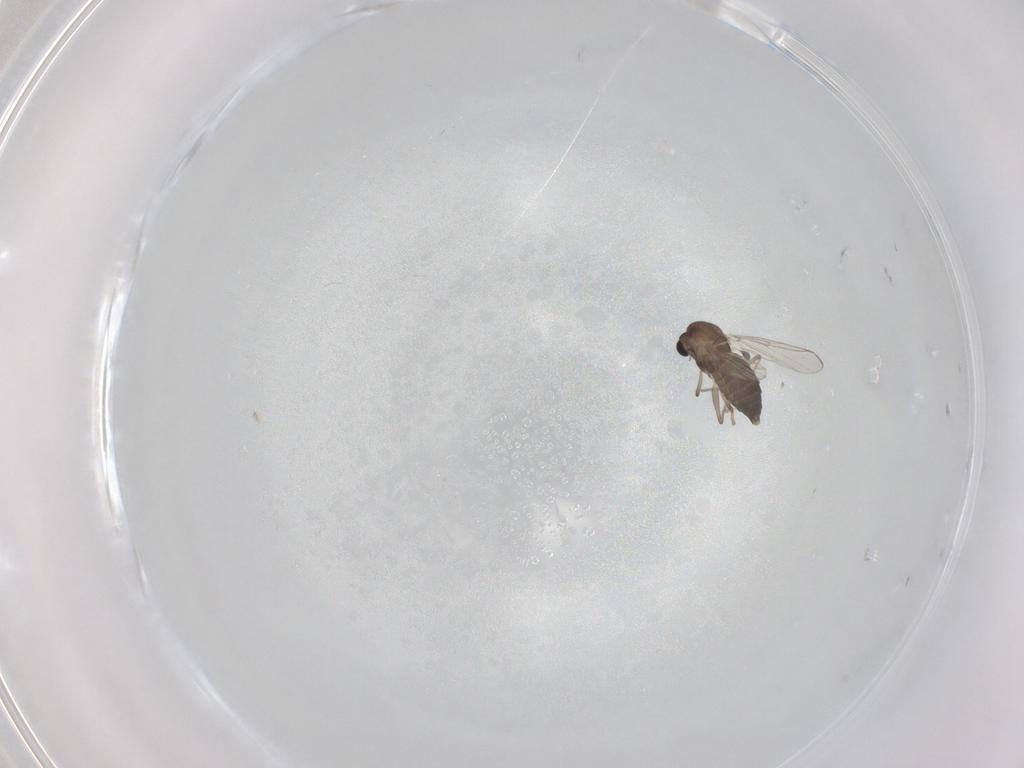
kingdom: Animalia
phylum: Arthropoda
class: Insecta
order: Diptera
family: Chironomidae
